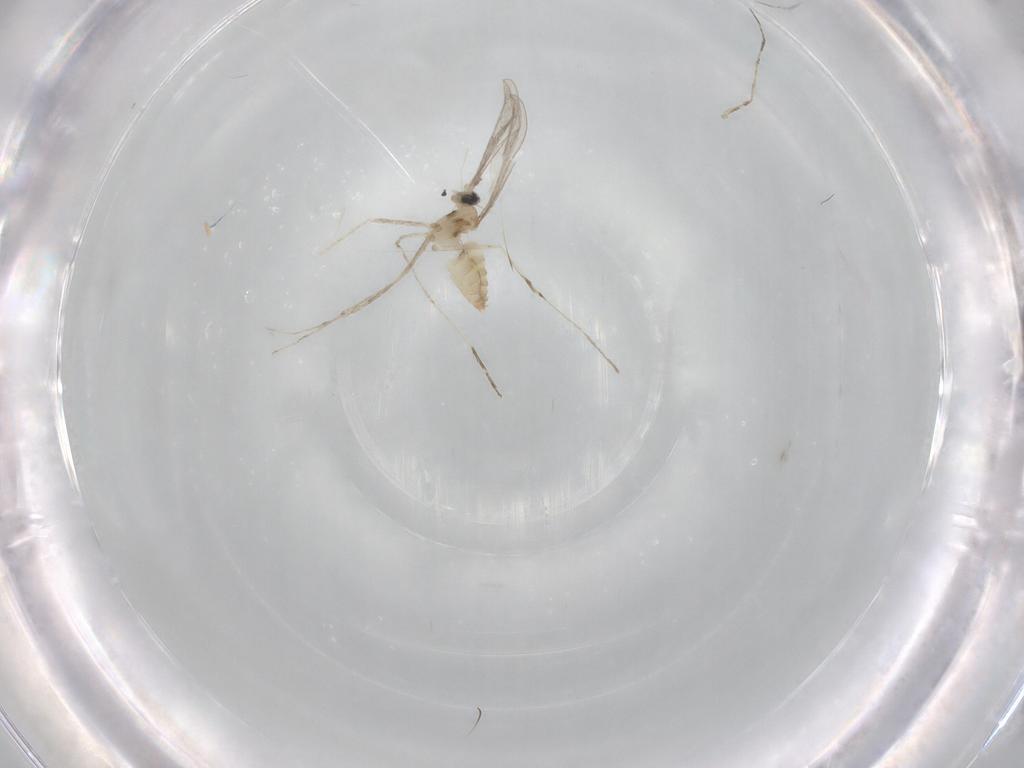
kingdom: Animalia
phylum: Arthropoda
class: Insecta
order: Diptera
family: Cecidomyiidae
